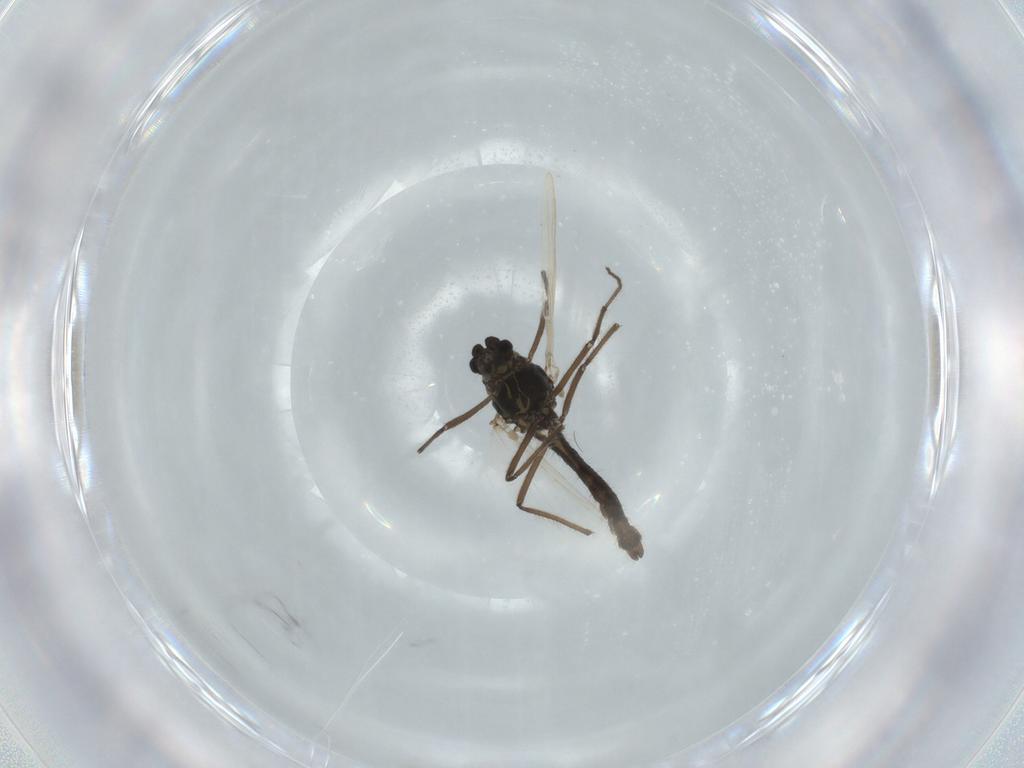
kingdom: Animalia
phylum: Arthropoda
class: Insecta
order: Diptera
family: Chironomidae
